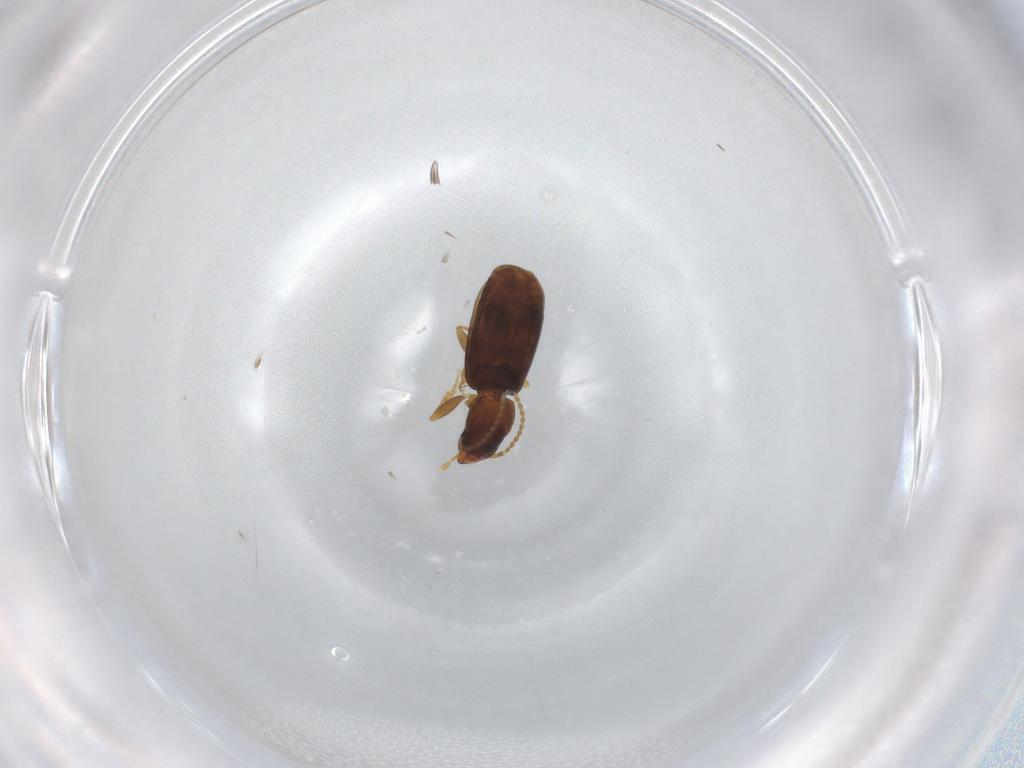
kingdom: Animalia
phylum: Arthropoda
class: Insecta
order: Coleoptera
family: Carabidae
